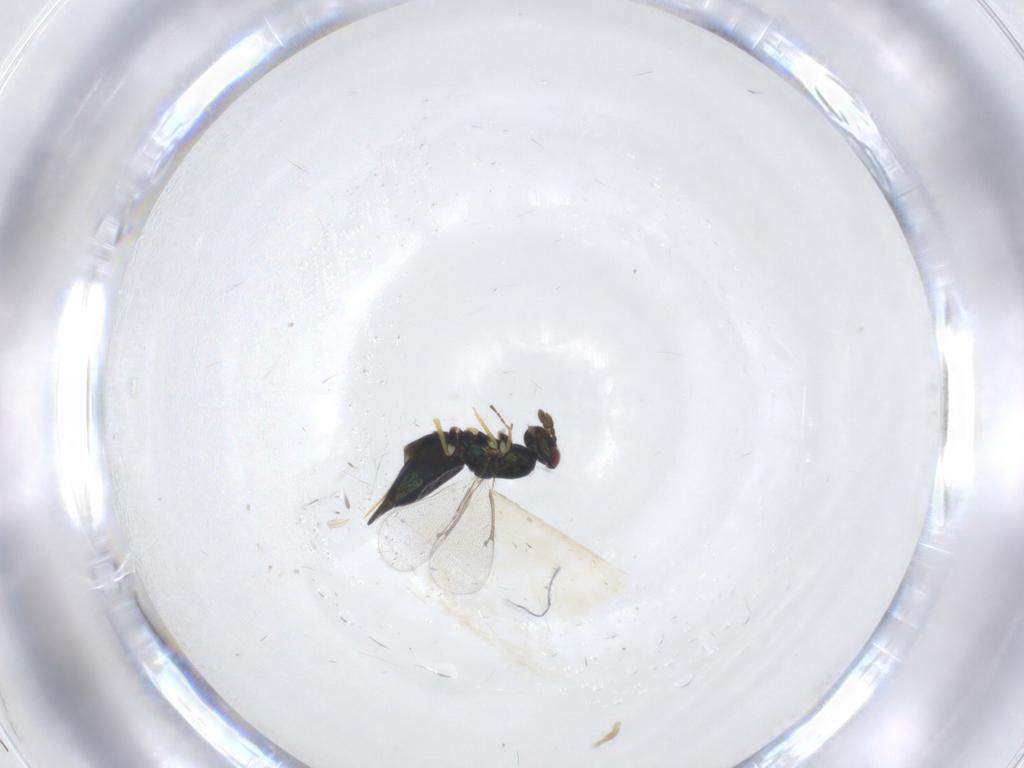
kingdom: Animalia
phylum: Arthropoda
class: Insecta
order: Hymenoptera
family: Eulophidae
